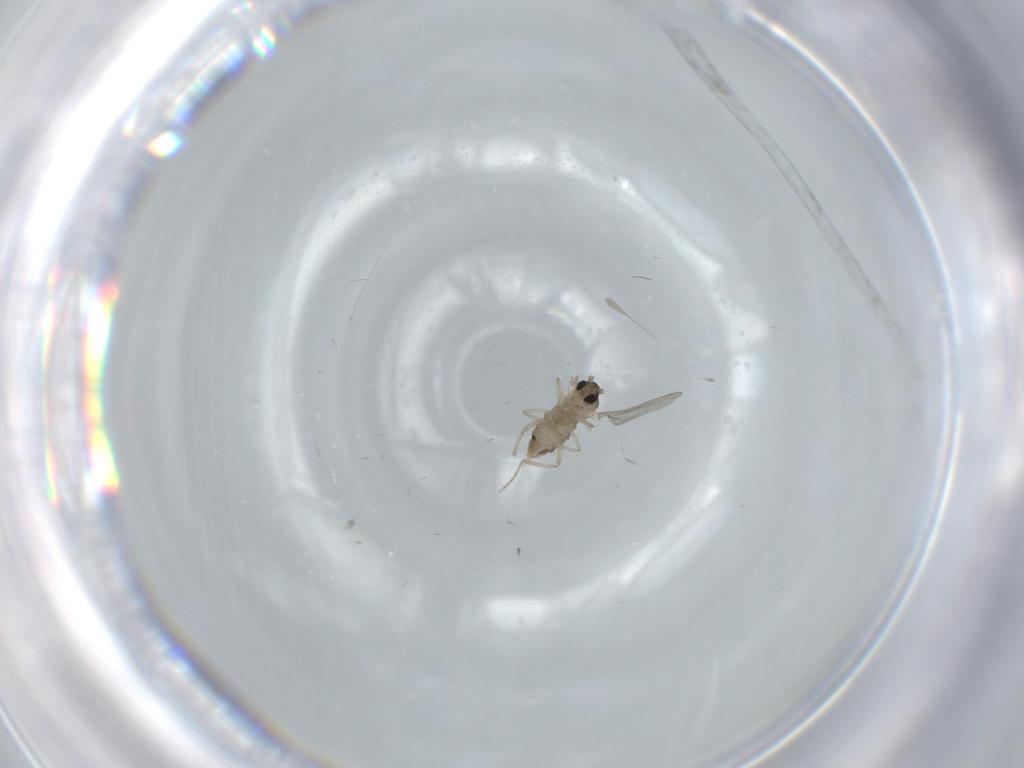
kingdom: Animalia
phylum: Arthropoda
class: Insecta
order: Diptera
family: Cecidomyiidae
